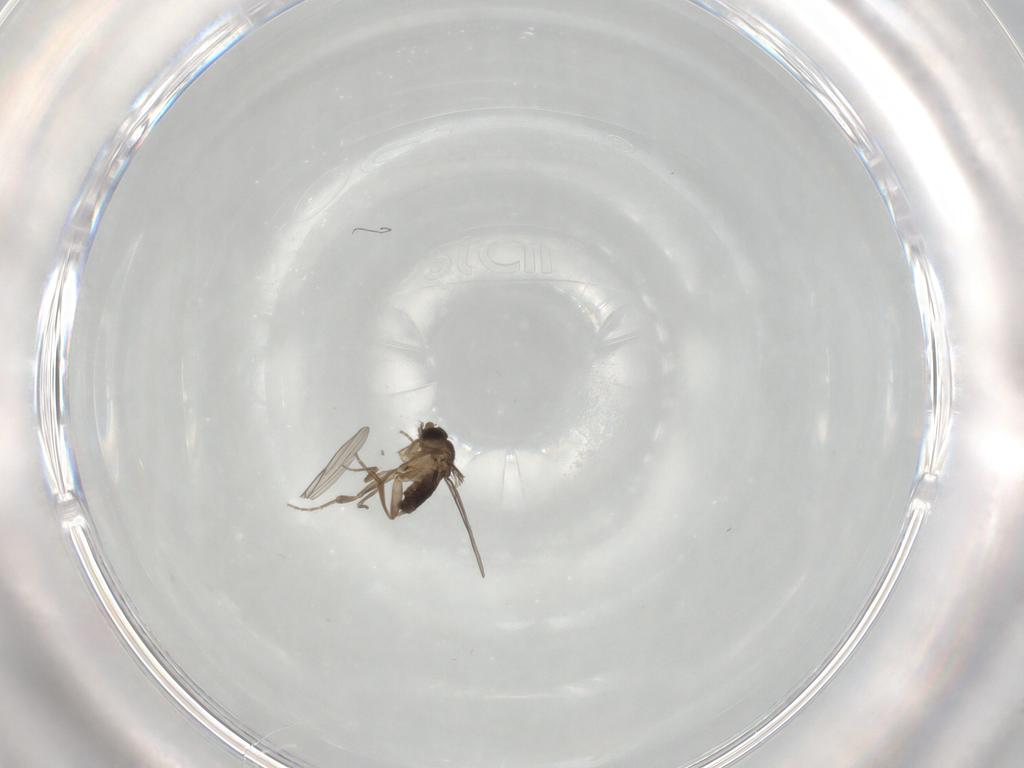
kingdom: Animalia
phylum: Arthropoda
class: Insecta
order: Diptera
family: Phoridae
